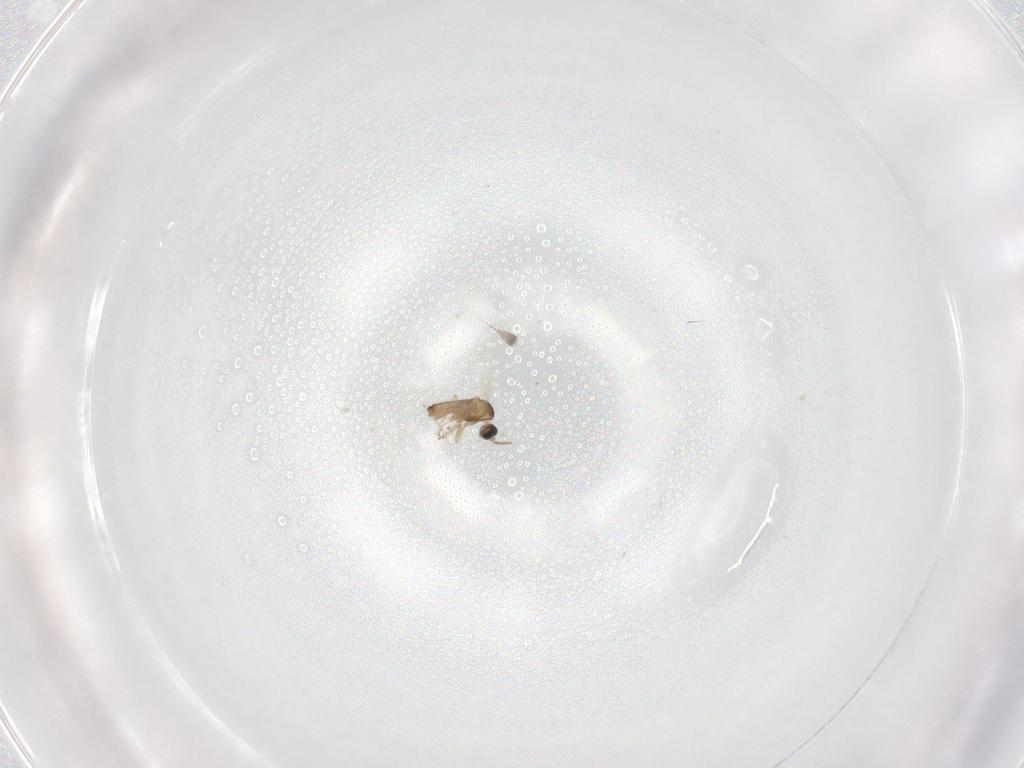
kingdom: Animalia
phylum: Arthropoda
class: Insecta
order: Diptera
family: Cecidomyiidae
